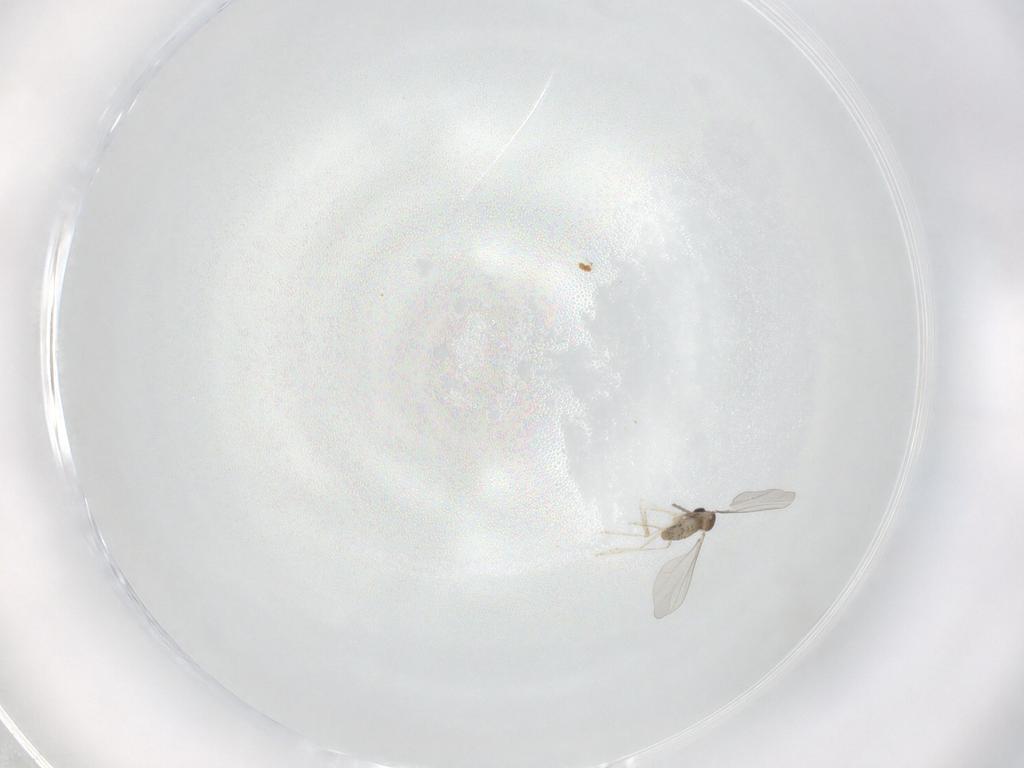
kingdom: Animalia
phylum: Arthropoda
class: Insecta
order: Diptera
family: Cecidomyiidae
